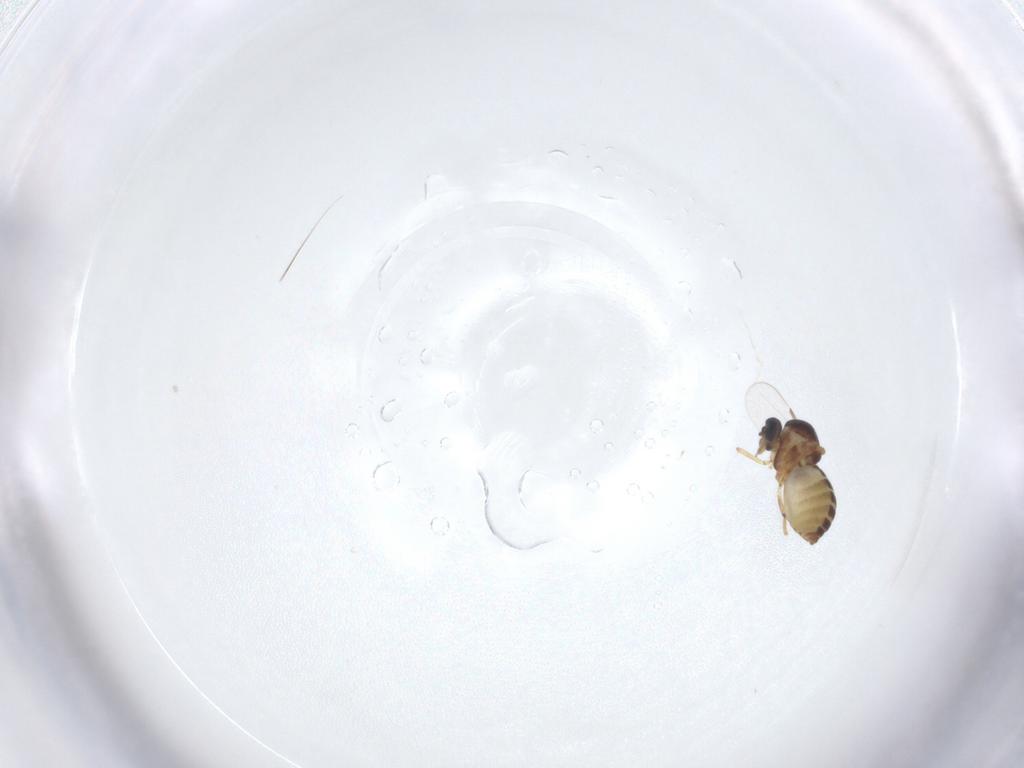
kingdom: Animalia
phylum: Arthropoda
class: Insecta
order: Diptera
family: Ceratopogonidae
